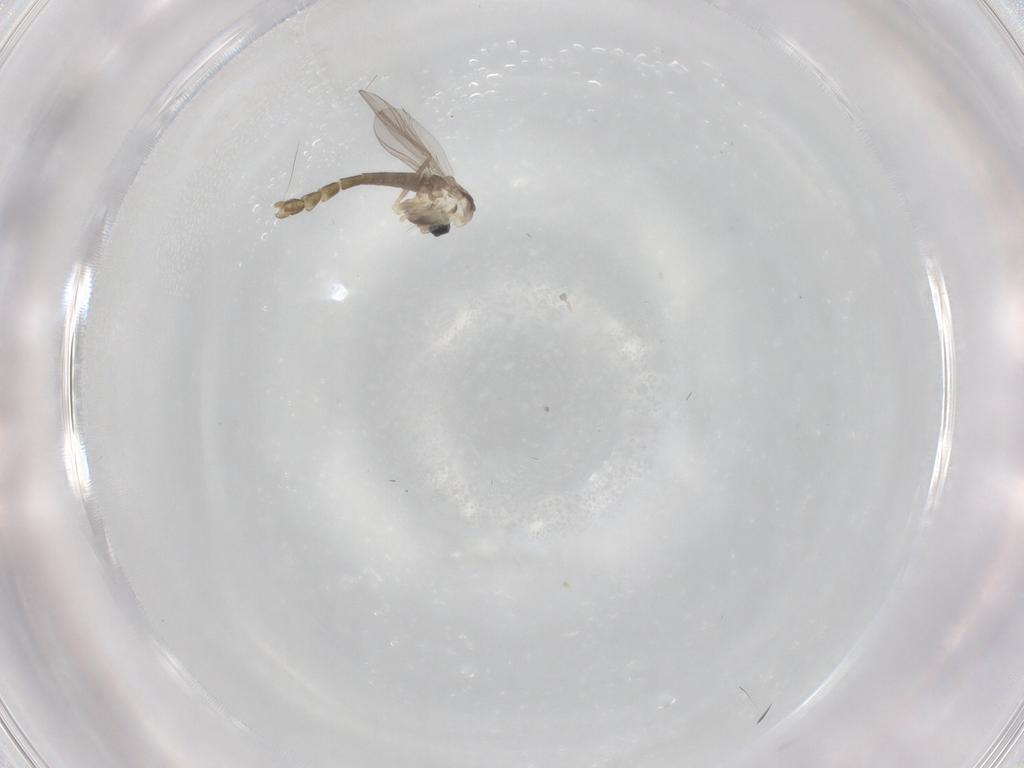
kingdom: Animalia
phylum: Arthropoda
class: Insecta
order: Diptera
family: Chironomidae
